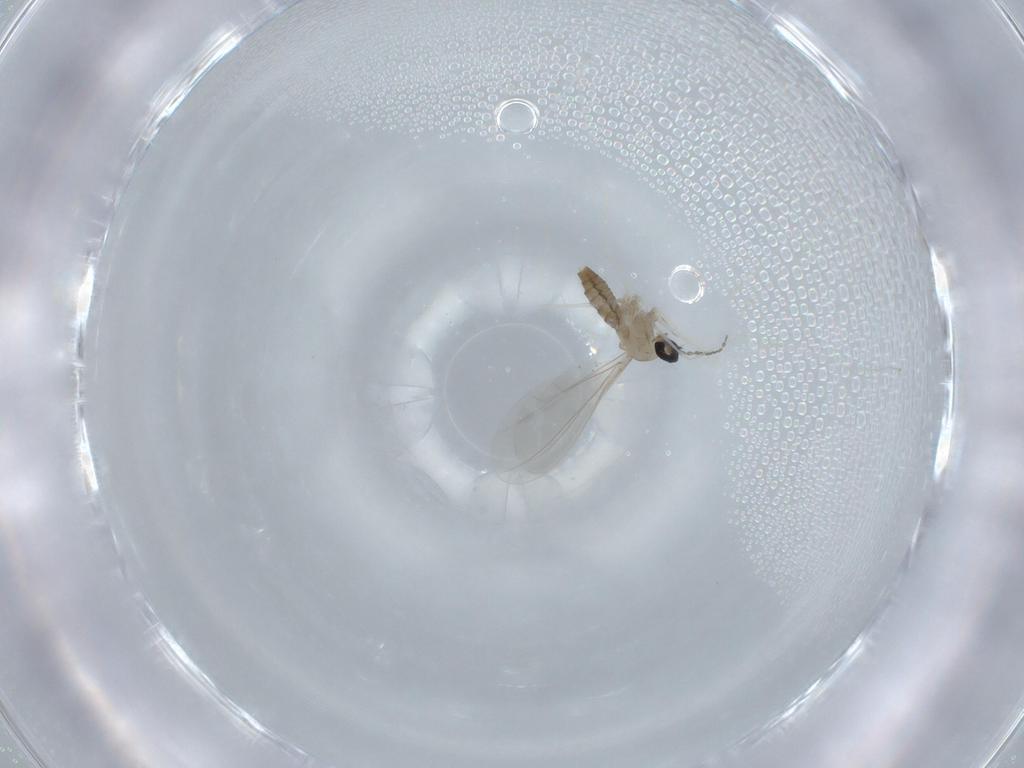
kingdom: Animalia
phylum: Arthropoda
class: Insecta
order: Diptera
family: Cecidomyiidae
